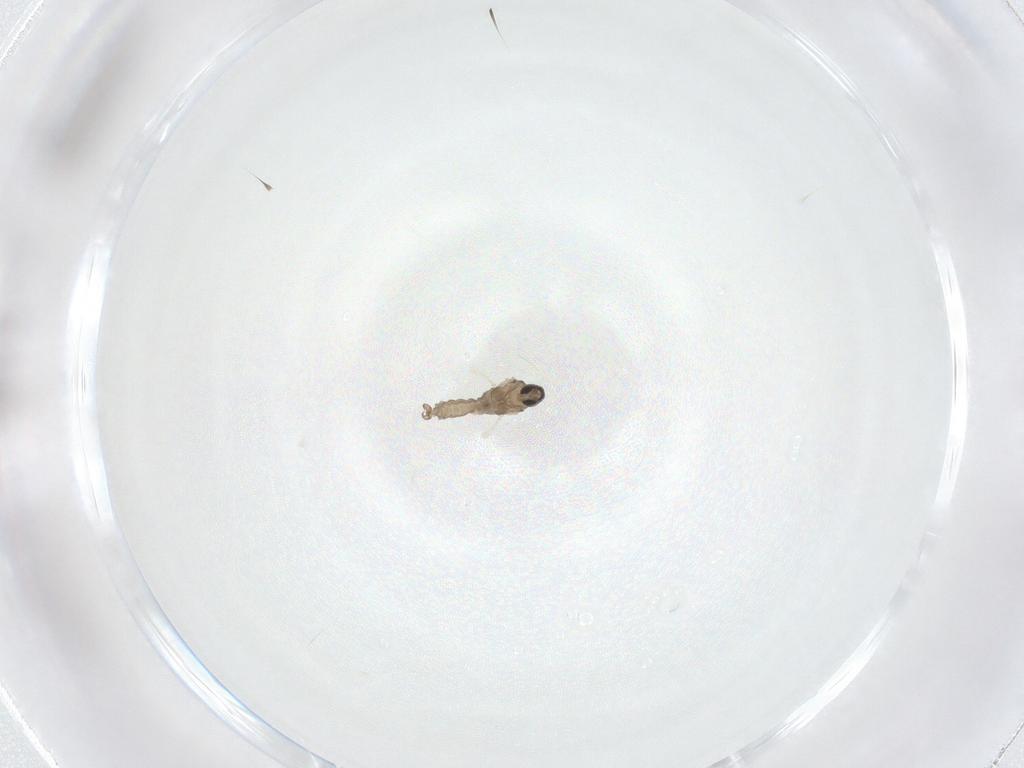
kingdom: Animalia
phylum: Arthropoda
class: Insecta
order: Diptera
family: Cecidomyiidae
